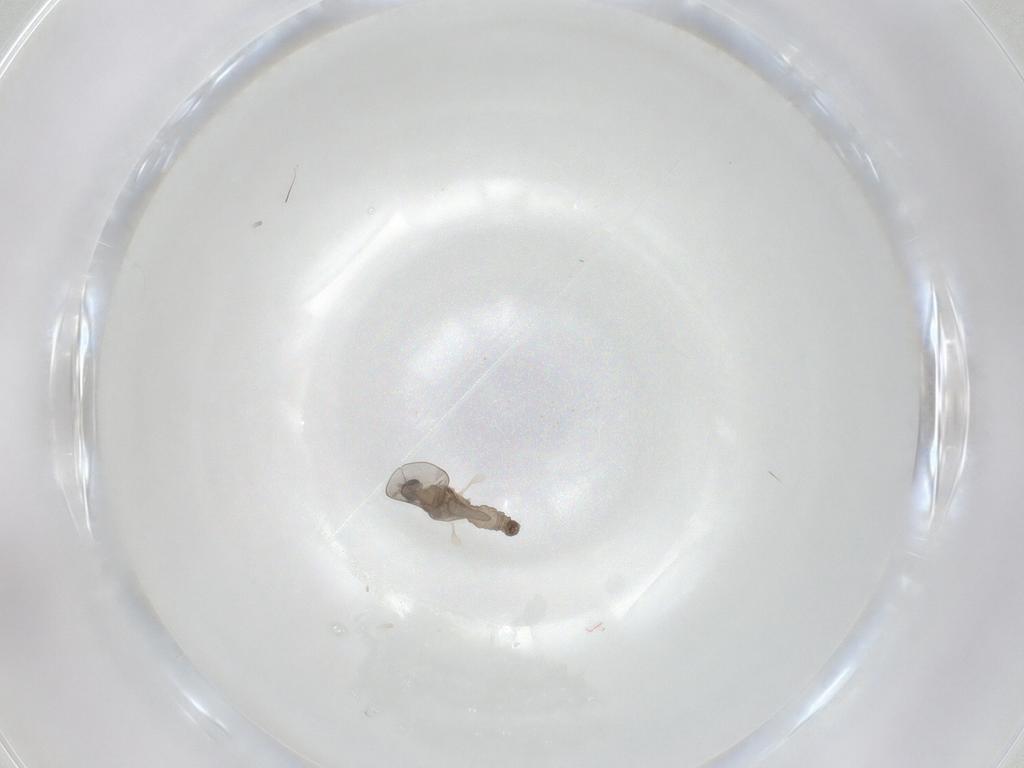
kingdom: Animalia
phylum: Arthropoda
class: Insecta
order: Diptera
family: Cecidomyiidae
